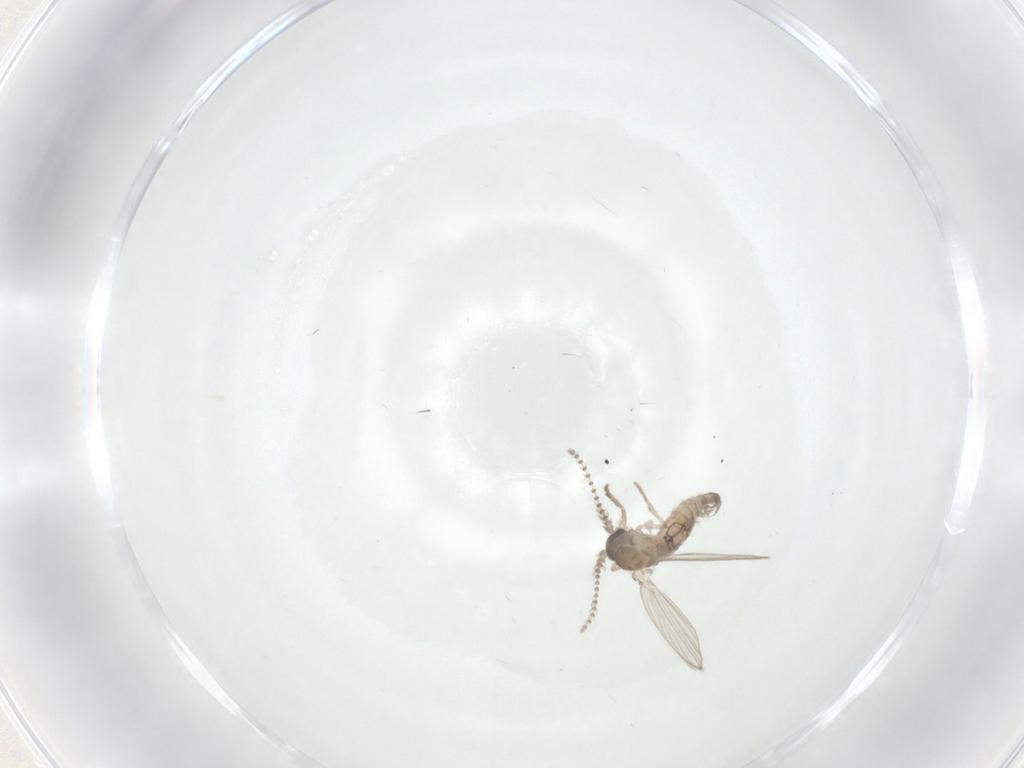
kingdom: Animalia
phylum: Arthropoda
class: Insecta
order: Diptera
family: Psychodidae
